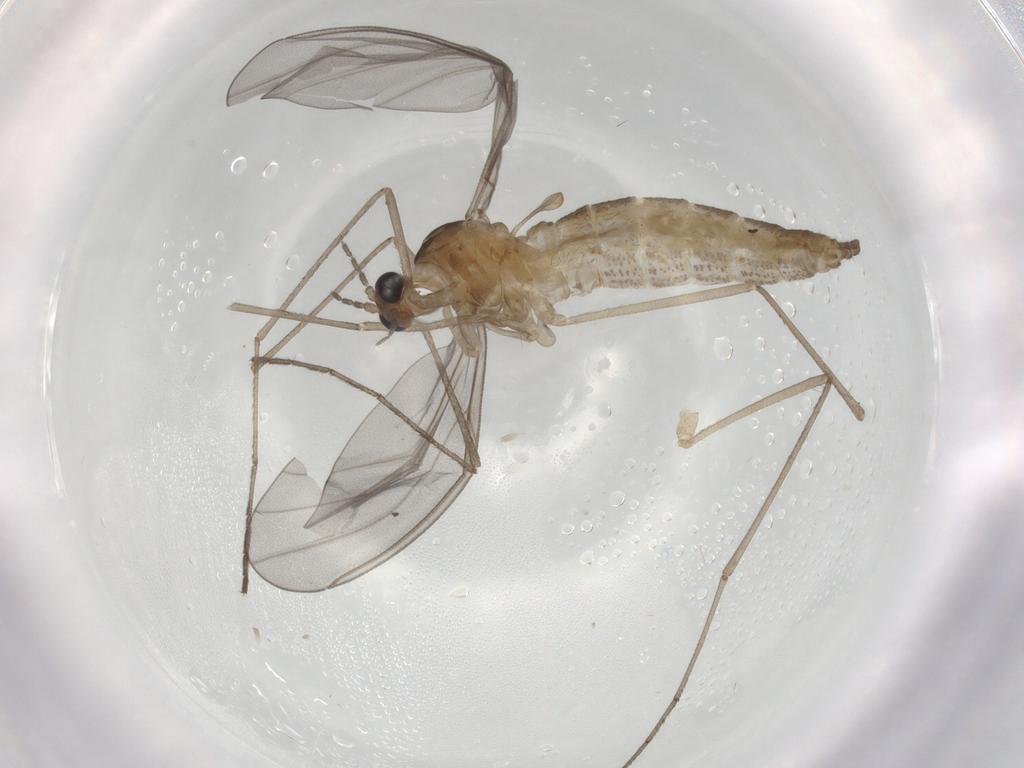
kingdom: Animalia
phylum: Arthropoda
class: Insecta
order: Diptera
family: Cecidomyiidae
